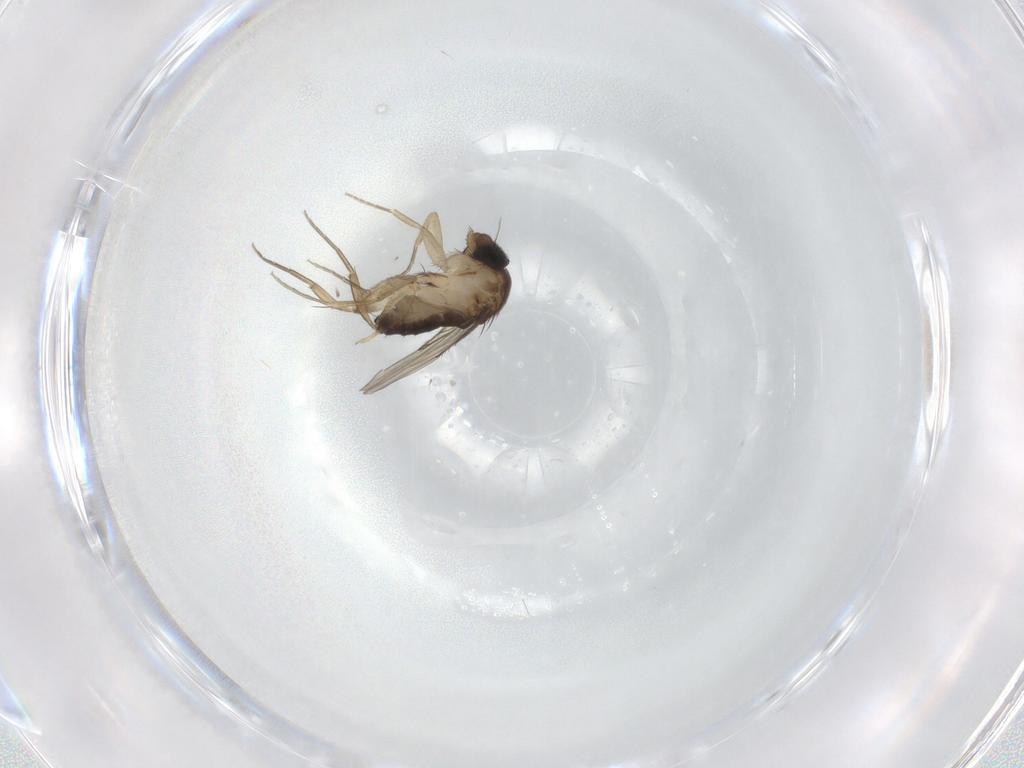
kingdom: Animalia
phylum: Arthropoda
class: Insecta
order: Diptera
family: Phoridae
